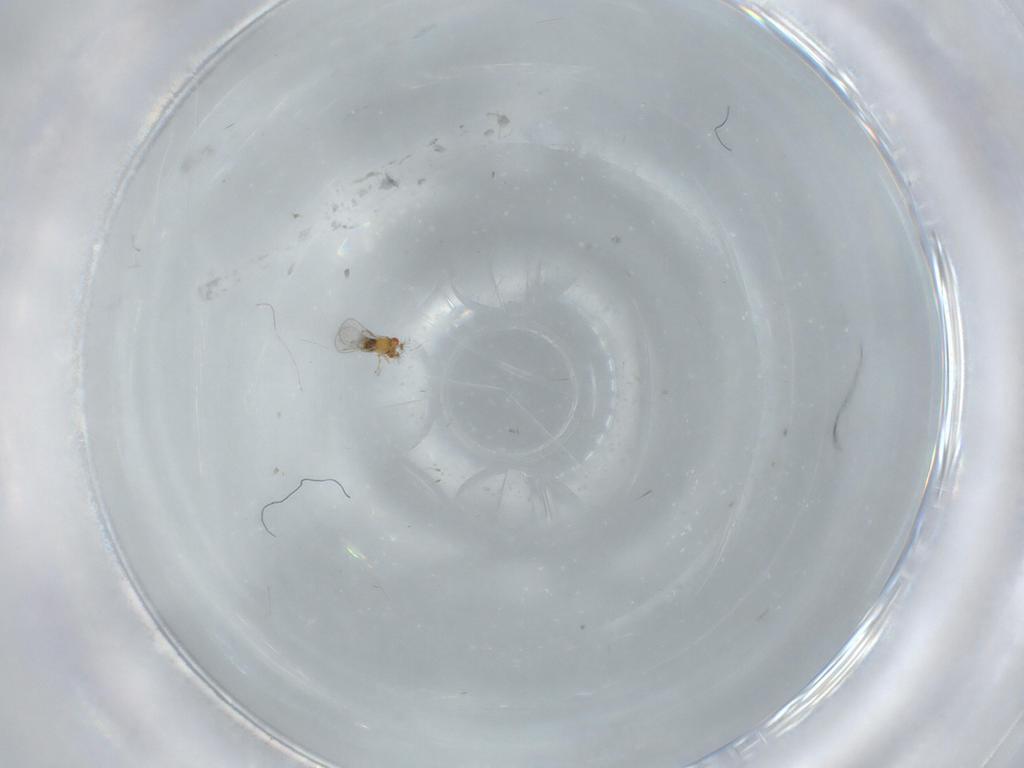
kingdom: Animalia
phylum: Arthropoda
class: Insecta
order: Hymenoptera
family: Trichogrammatidae
